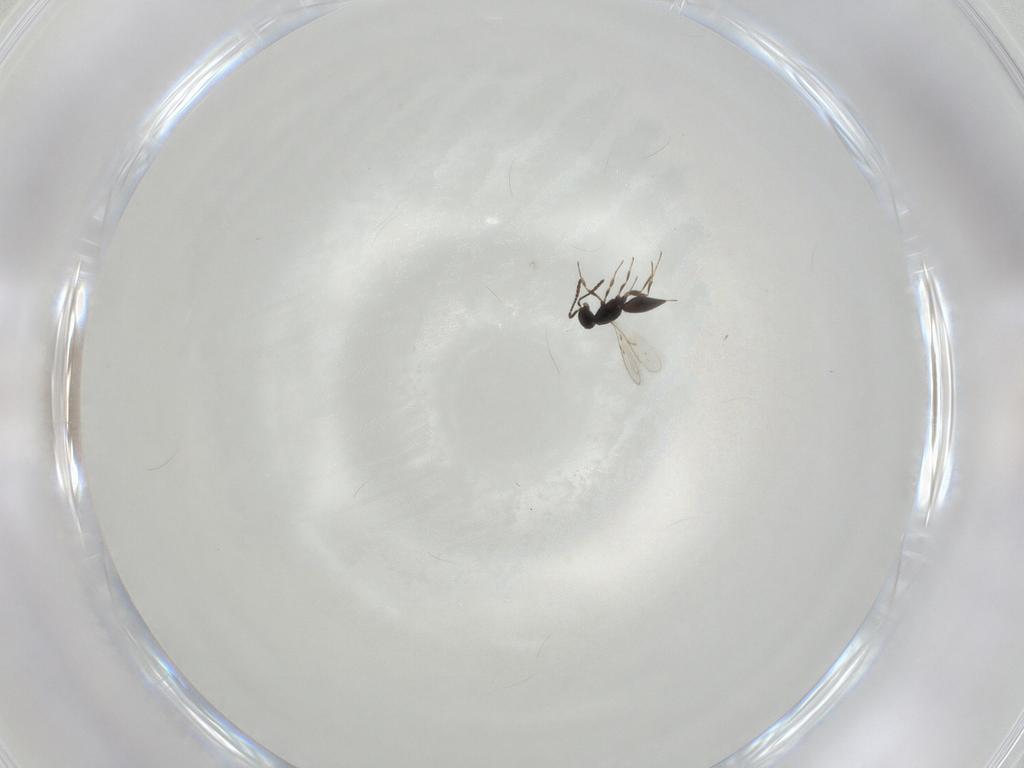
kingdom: Animalia
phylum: Arthropoda
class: Insecta
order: Hymenoptera
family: Scelionidae
